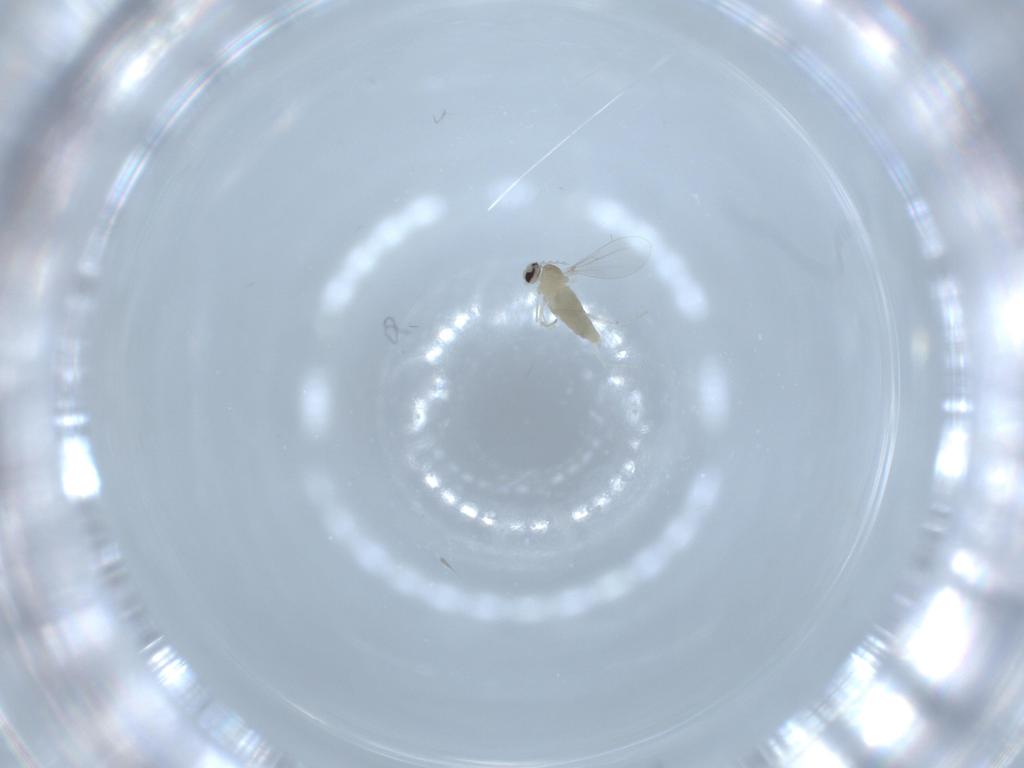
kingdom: Animalia
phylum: Arthropoda
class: Insecta
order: Diptera
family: Cecidomyiidae
